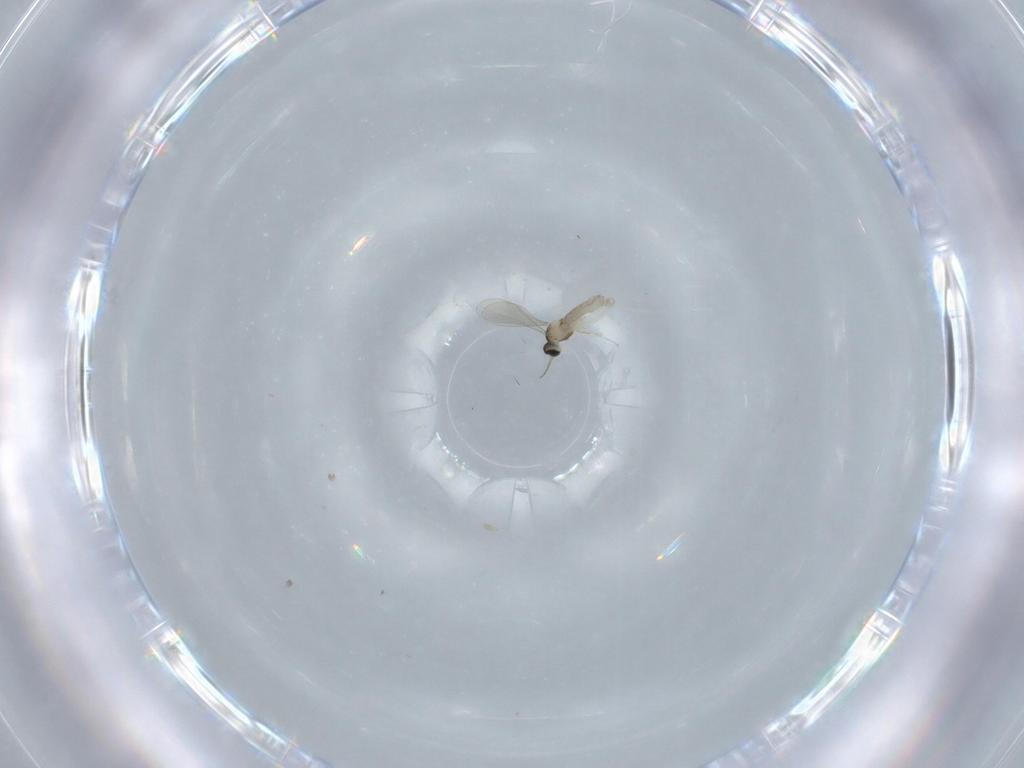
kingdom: Animalia
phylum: Arthropoda
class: Insecta
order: Diptera
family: Chironomidae
